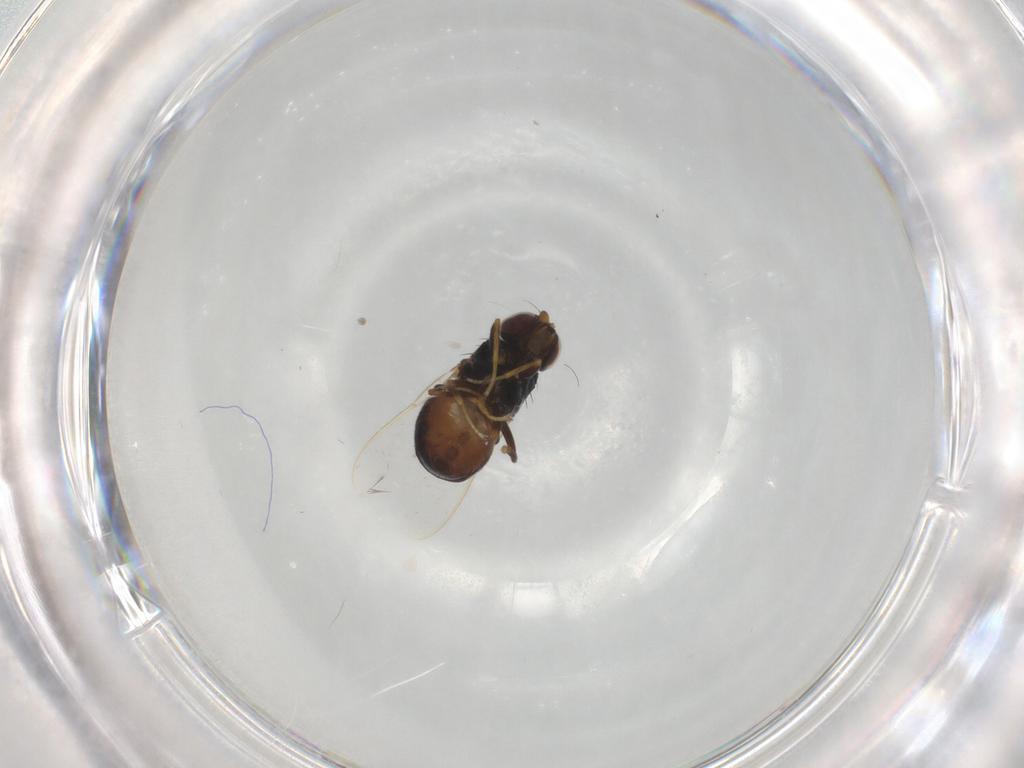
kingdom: Animalia
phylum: Arthropoda
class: Insecta
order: Diptera
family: Chloropidae
